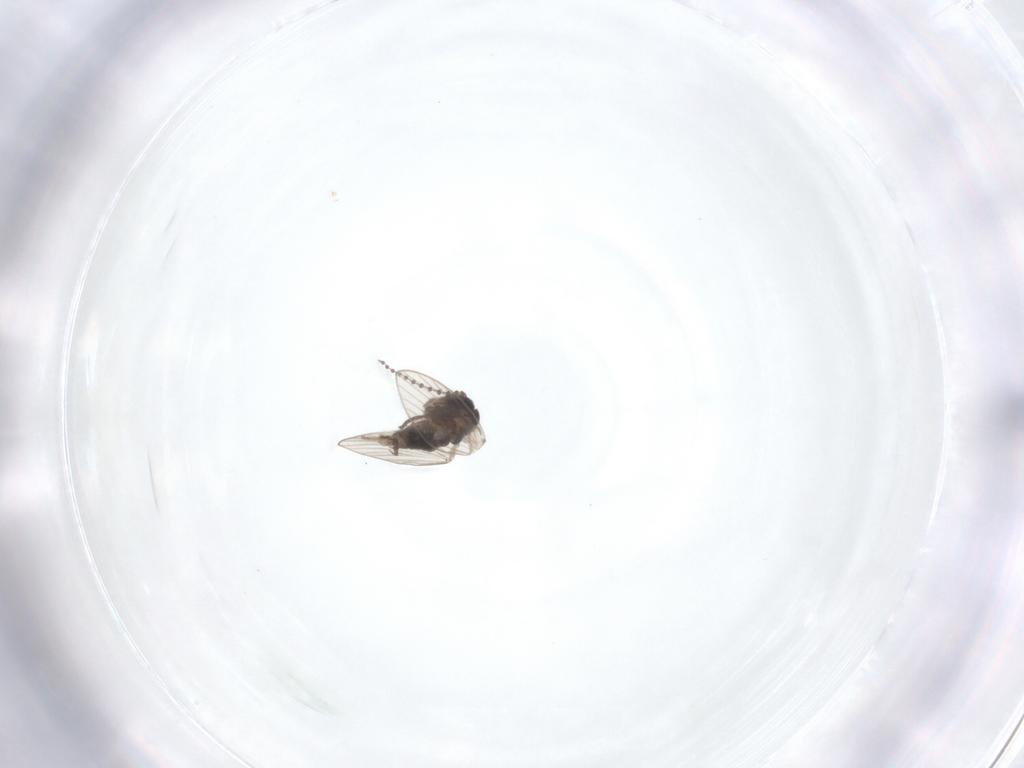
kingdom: Animalia
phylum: Arthropoda
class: Insecta
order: Diptera
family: Psychodidae
